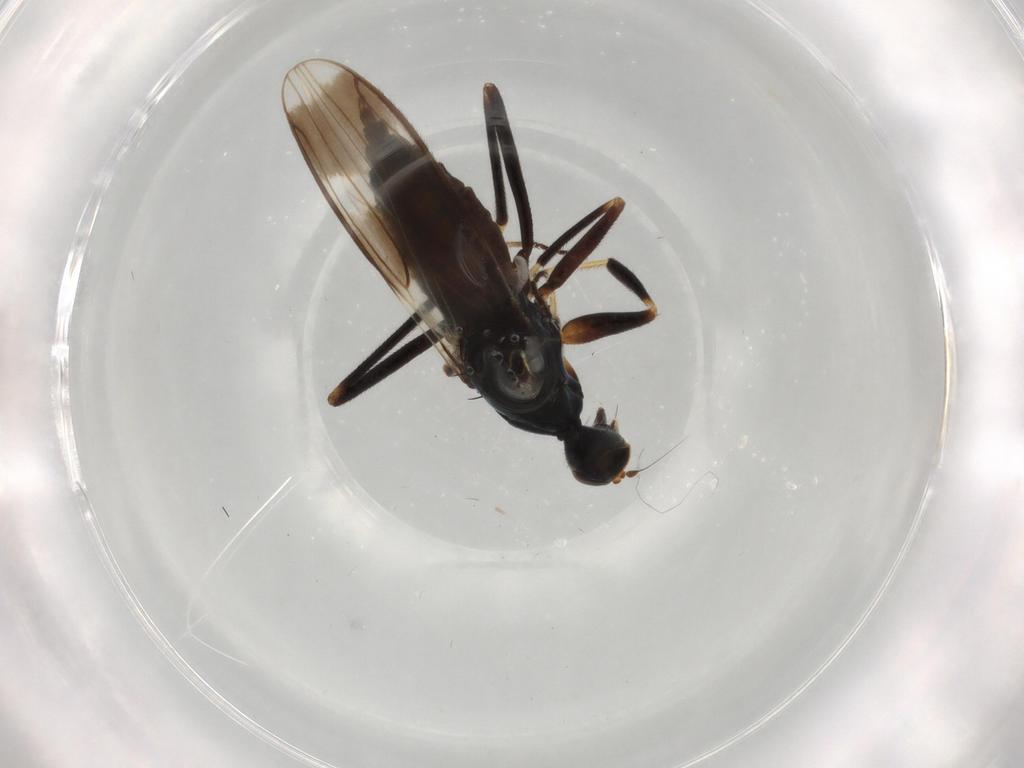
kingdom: Animalia
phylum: Arthropoda
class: Insecta
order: Diptera
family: Hybotidae
